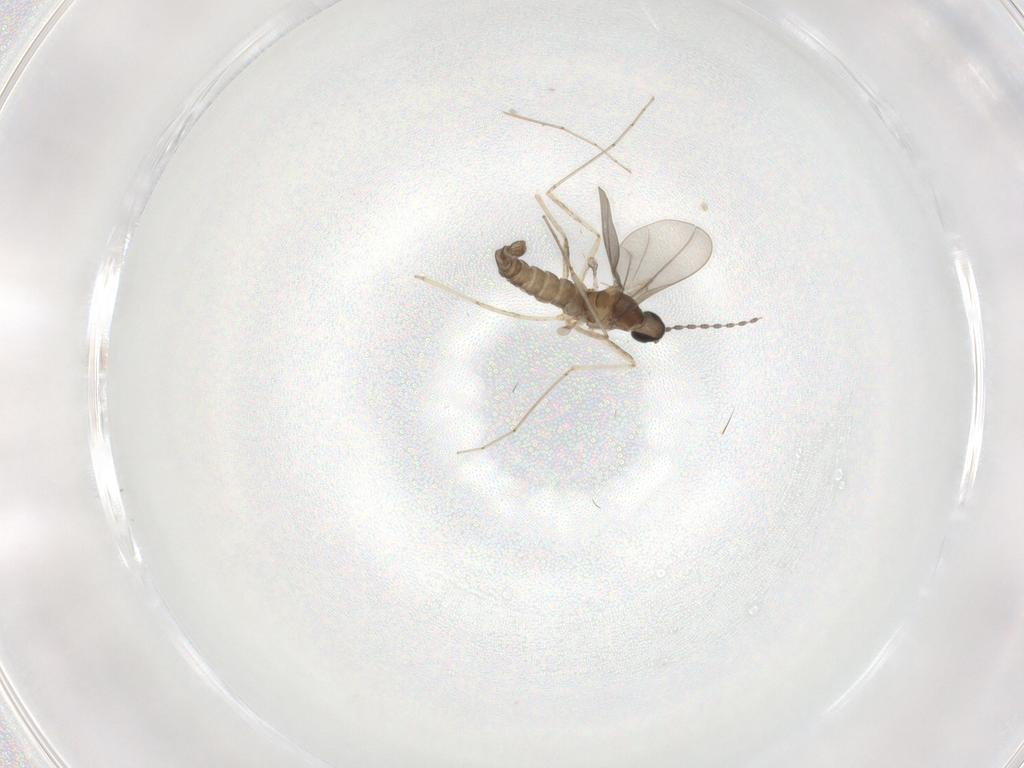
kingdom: Animalia
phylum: Arthropoda
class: Insecta
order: Diptera
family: Cecidomyiidae
